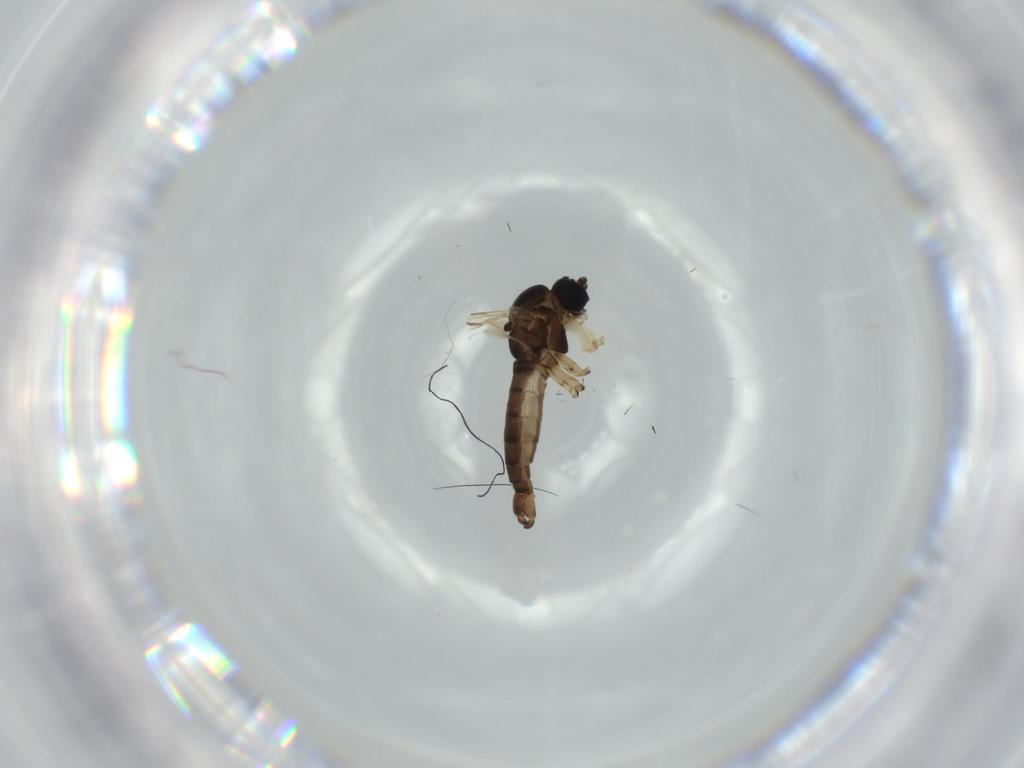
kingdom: Animalia
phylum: Arthropoda
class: Insecta
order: Diptera
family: Sciaridae
